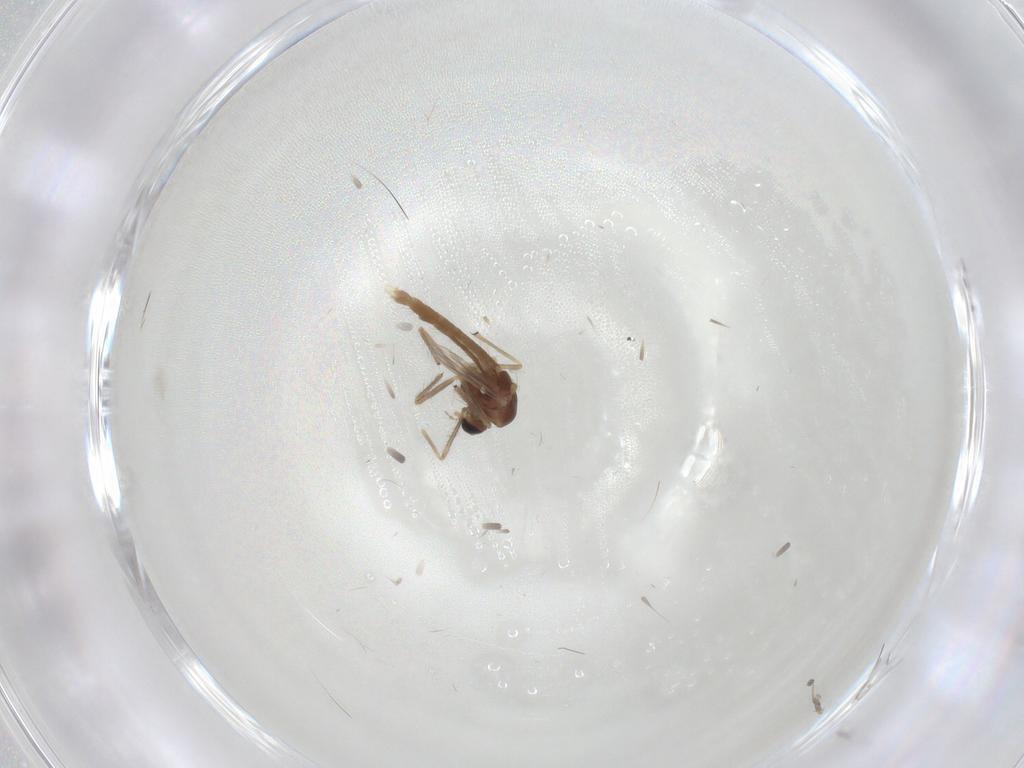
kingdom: Animalia
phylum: Arthropoda
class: Insecta
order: Diptera
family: Chironomidae
